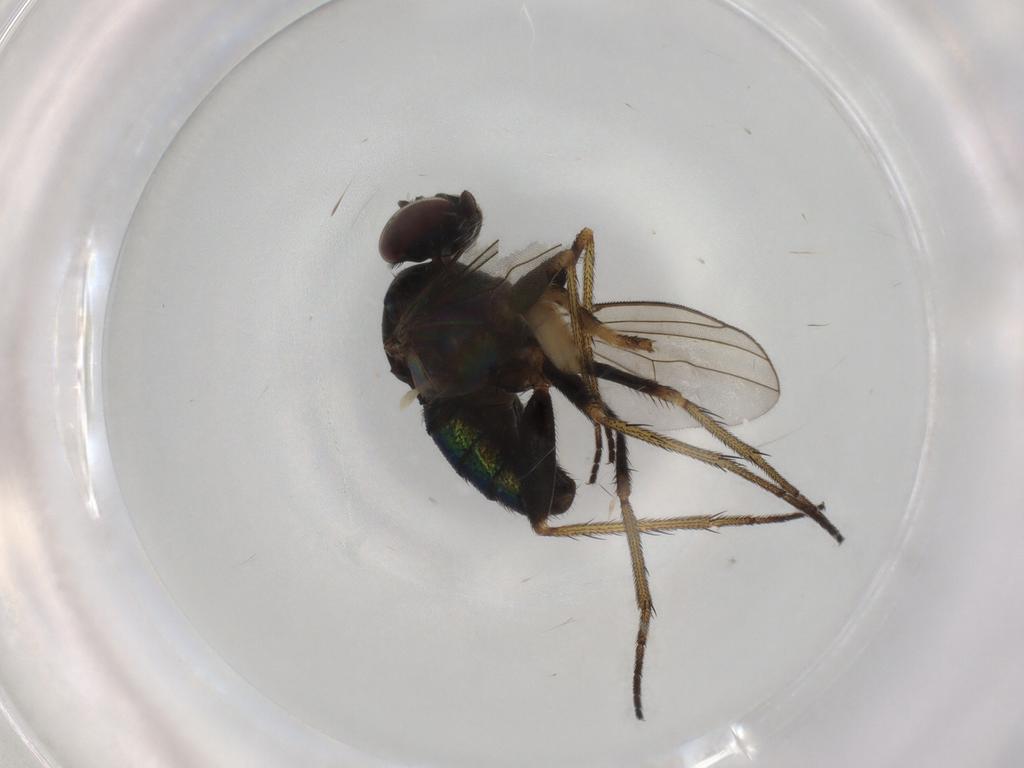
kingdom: Animalia
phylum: Arthropoda
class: Insecta
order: Diptera
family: Dolichopodidae
